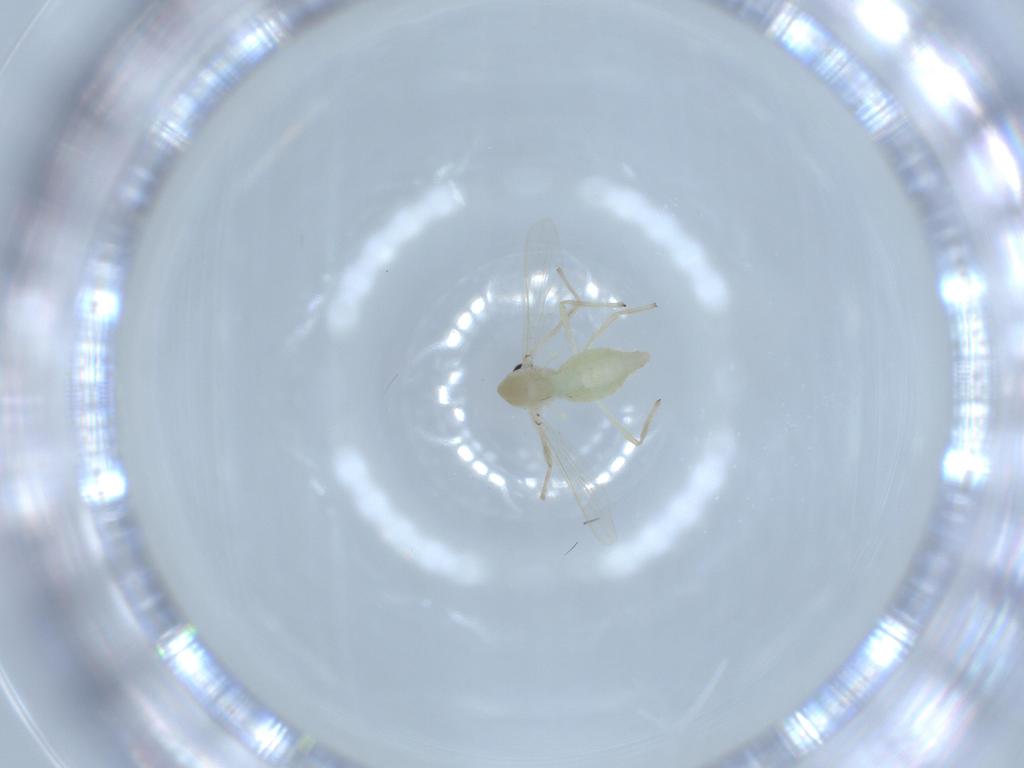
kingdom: Animalia
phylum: Arthropoda
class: Insecta
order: Diptera
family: Chironomidae
